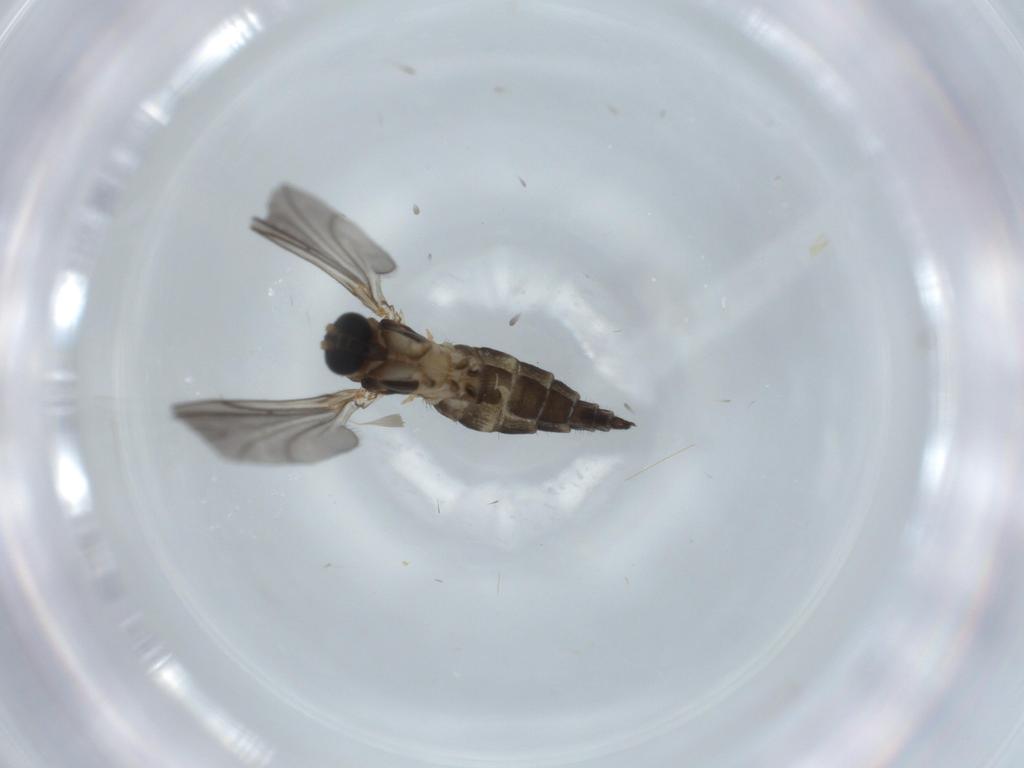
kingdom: Animalia
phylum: Arthropoda
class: Insecta
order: Diptera
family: Sciaridae
